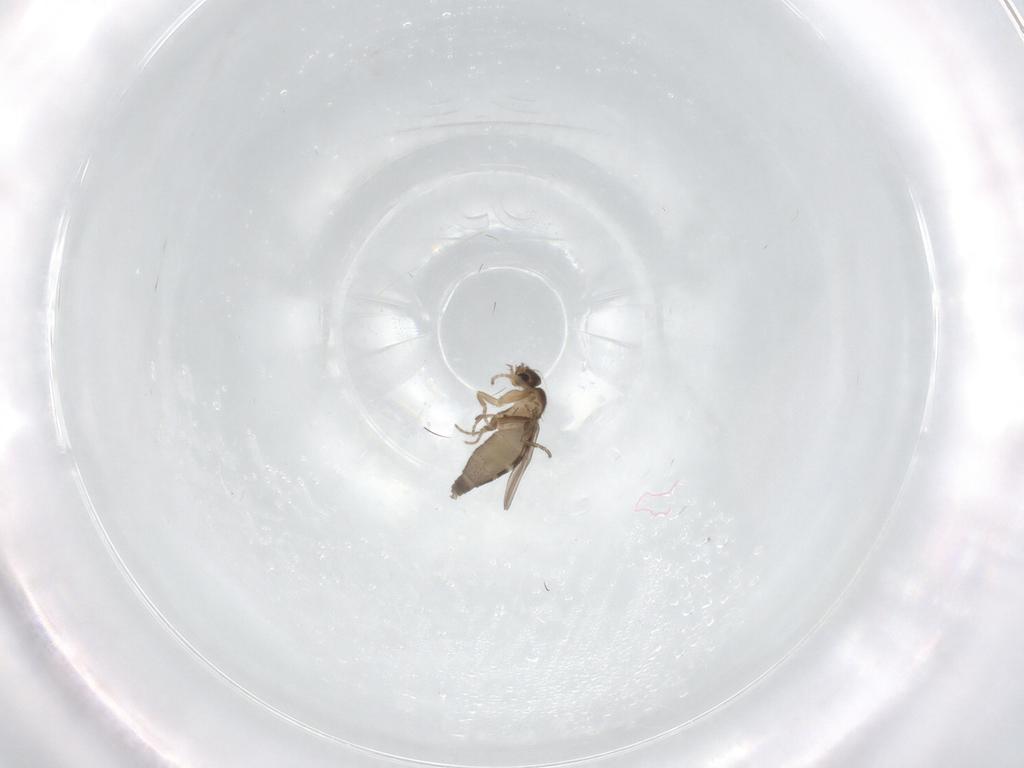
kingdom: Animalia
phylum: Arthropoda
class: Insecta
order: Diptera
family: Phoridae
